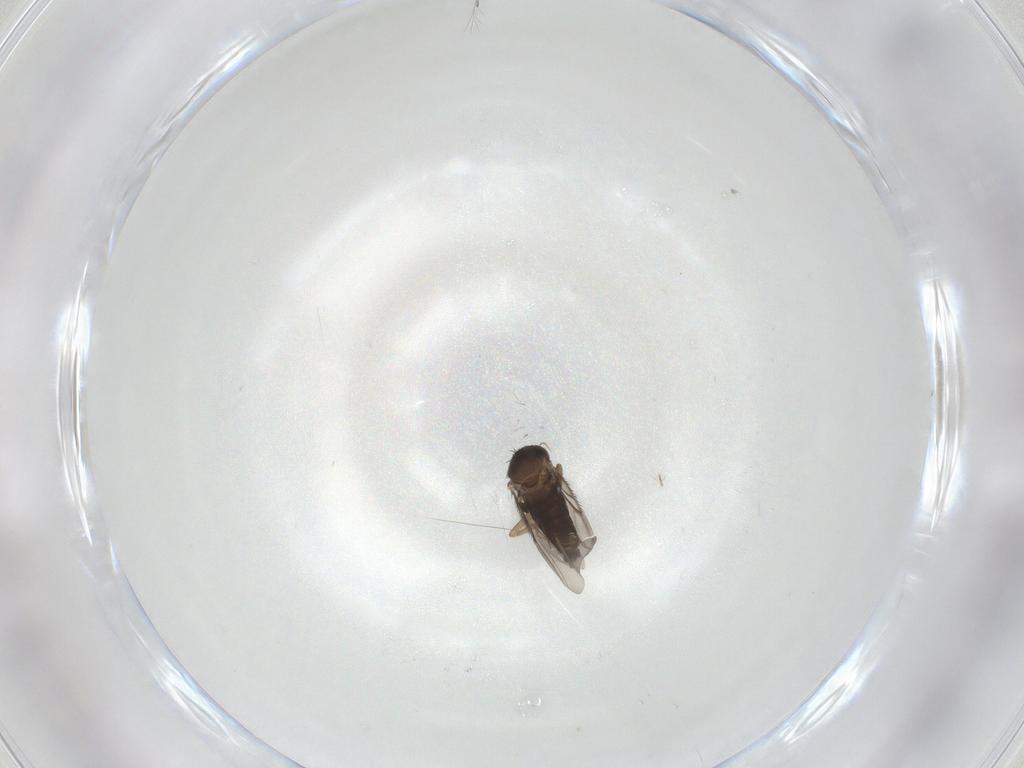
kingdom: Animalia
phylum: Arthropoda
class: Insecta
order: Diptera
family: Phoridae
